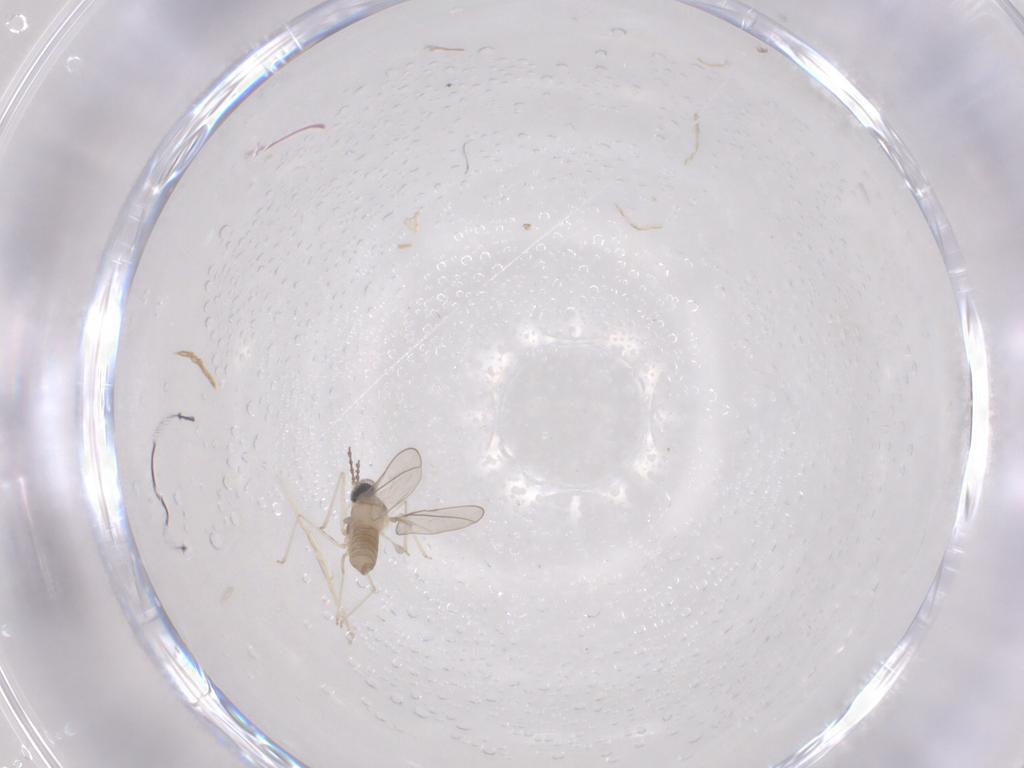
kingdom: Animalia
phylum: Arthropoda
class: Insecta
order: Diptera
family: Cecidomyiidae
